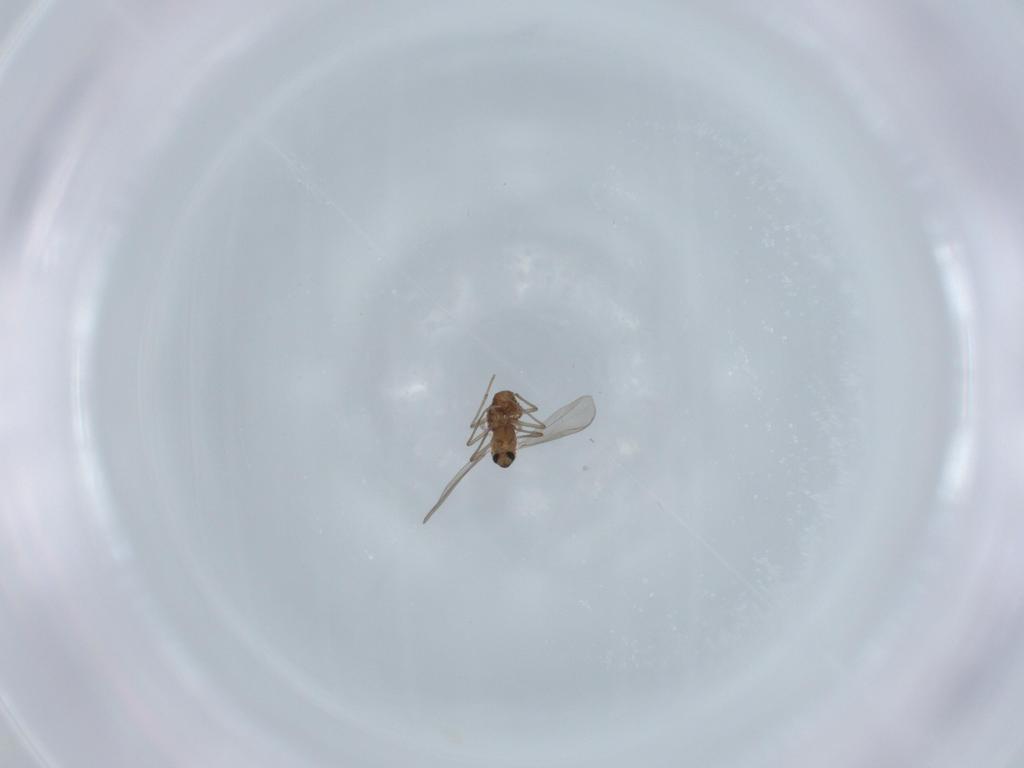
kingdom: Animalia
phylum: Arthropoda
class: Insecta
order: Diptera
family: Chironomidae
